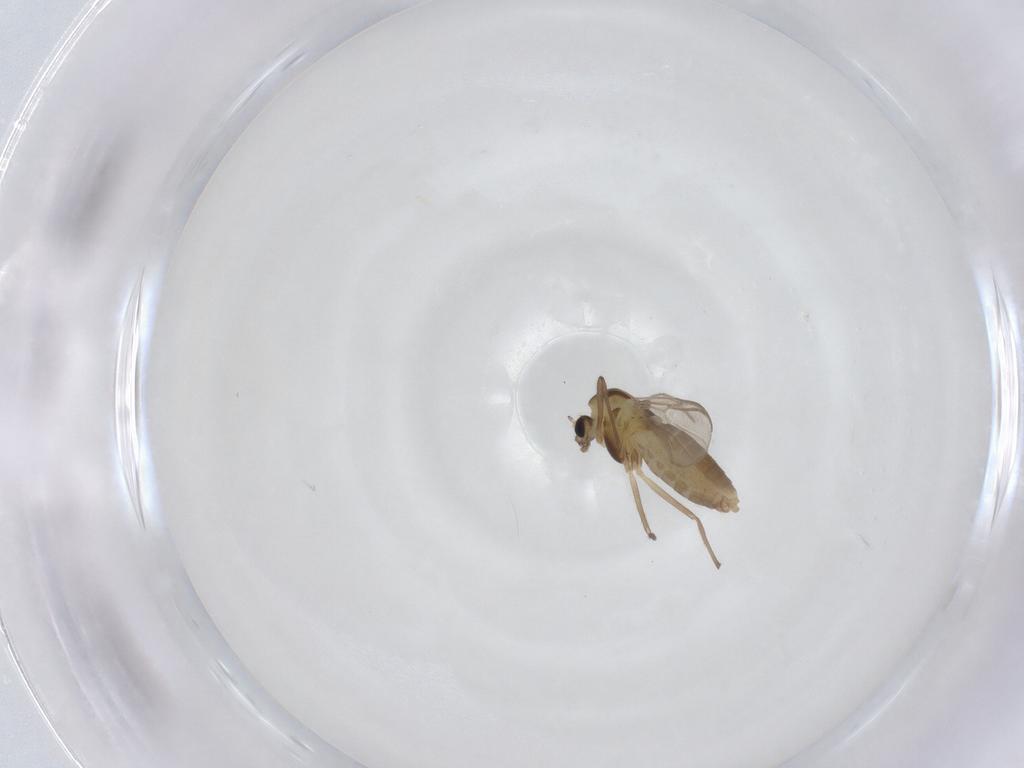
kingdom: Animalia
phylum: Arthropoda
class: Insecta
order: Diptera
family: Chironomidae
